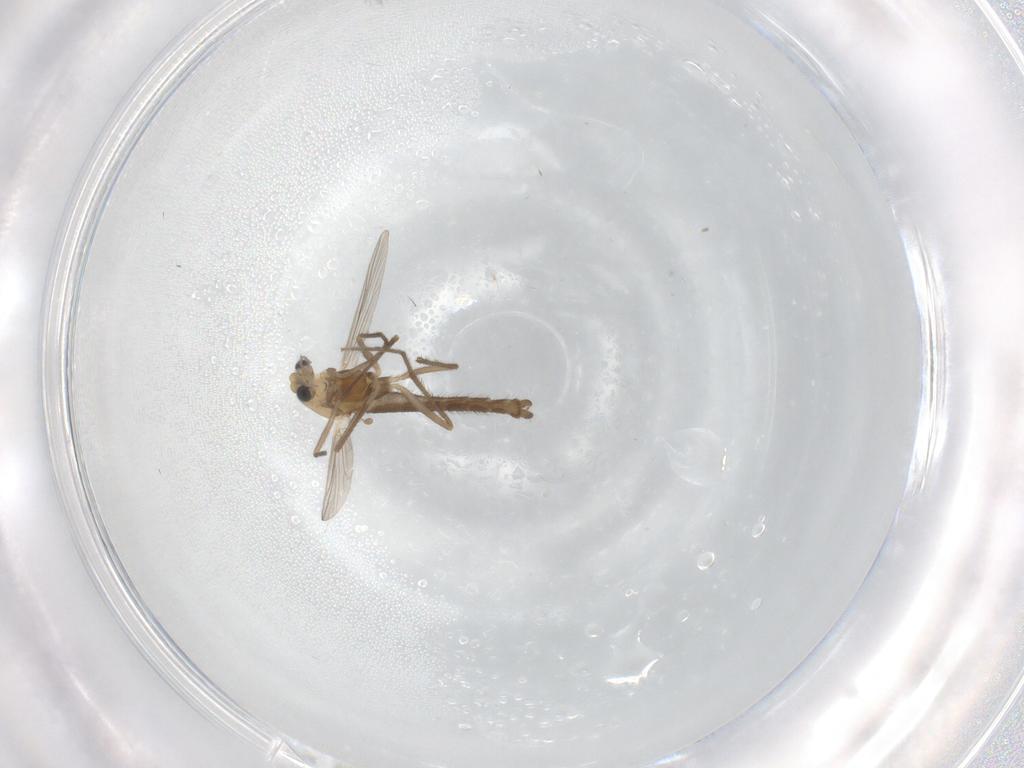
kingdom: Animalia
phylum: Arthropoda
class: Insecta
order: Diptera
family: Chironomidae
